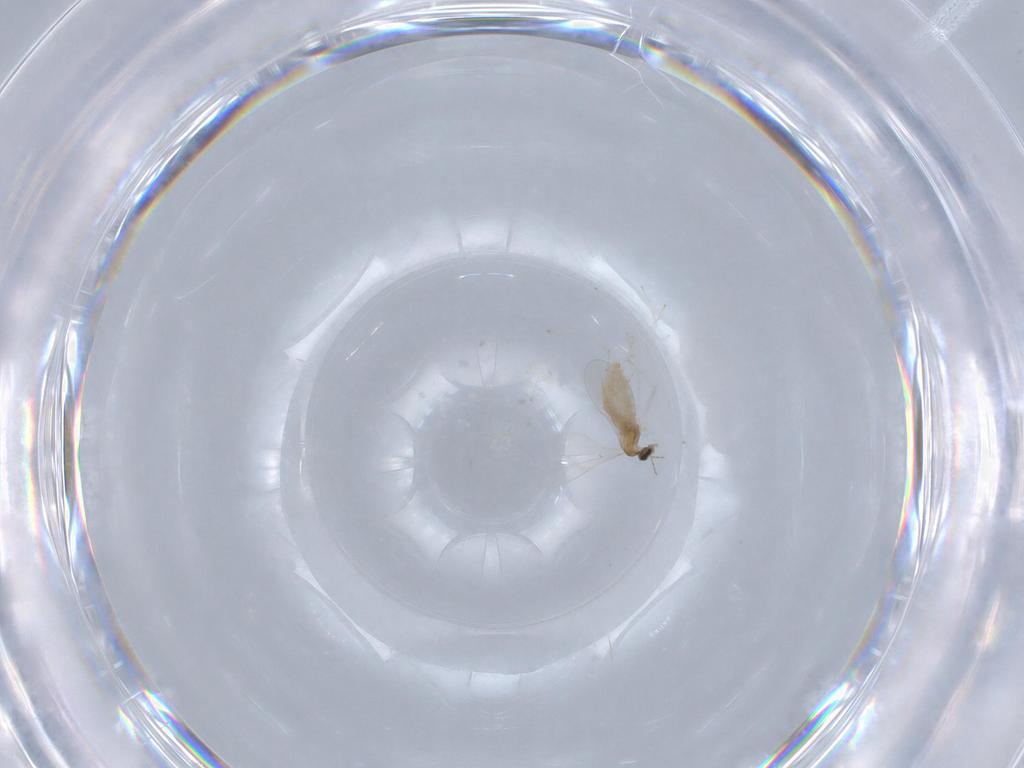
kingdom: Animalia
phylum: Arthropoda
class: Insecta
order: Diptera
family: Cecidomyiidae
